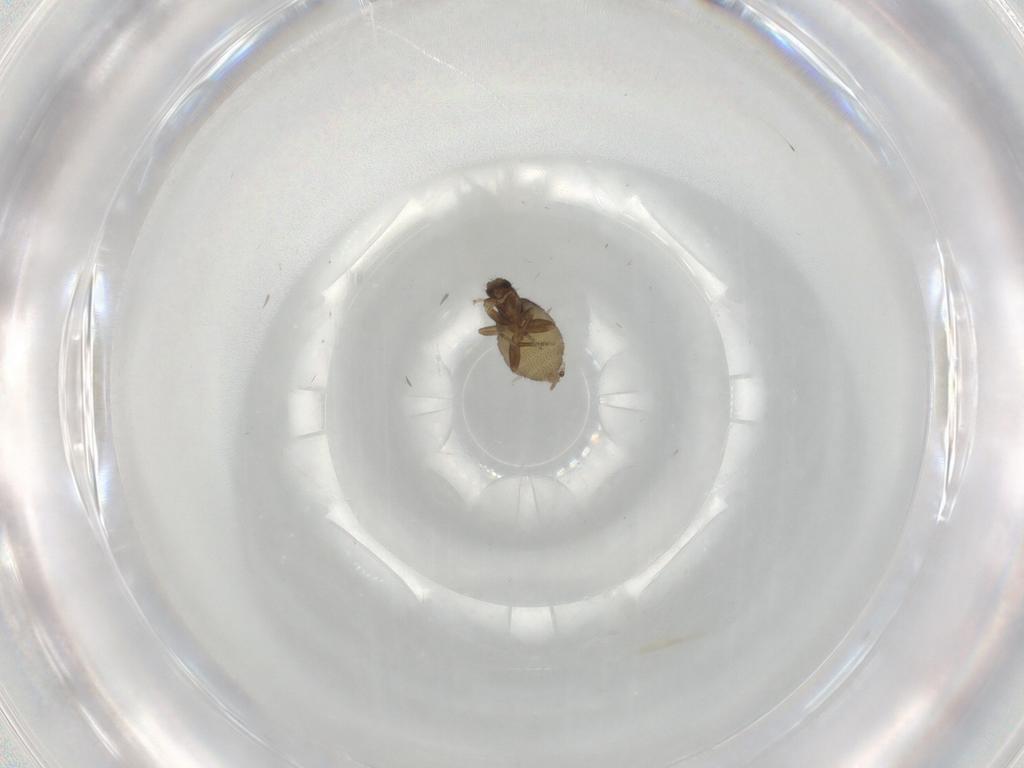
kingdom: Animalia
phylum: Arthropoda
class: Insecta
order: Diptera
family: Phoridae
